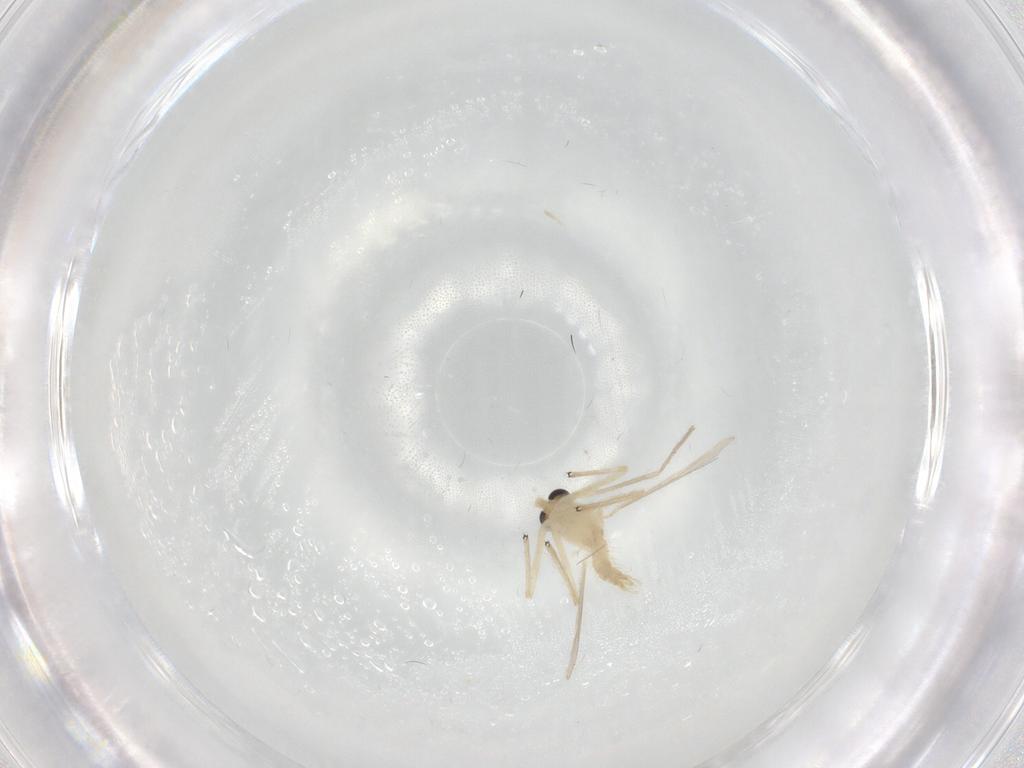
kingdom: Animalia
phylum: Arthropoda
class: Insecta
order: Diptera
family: Chironomidae
